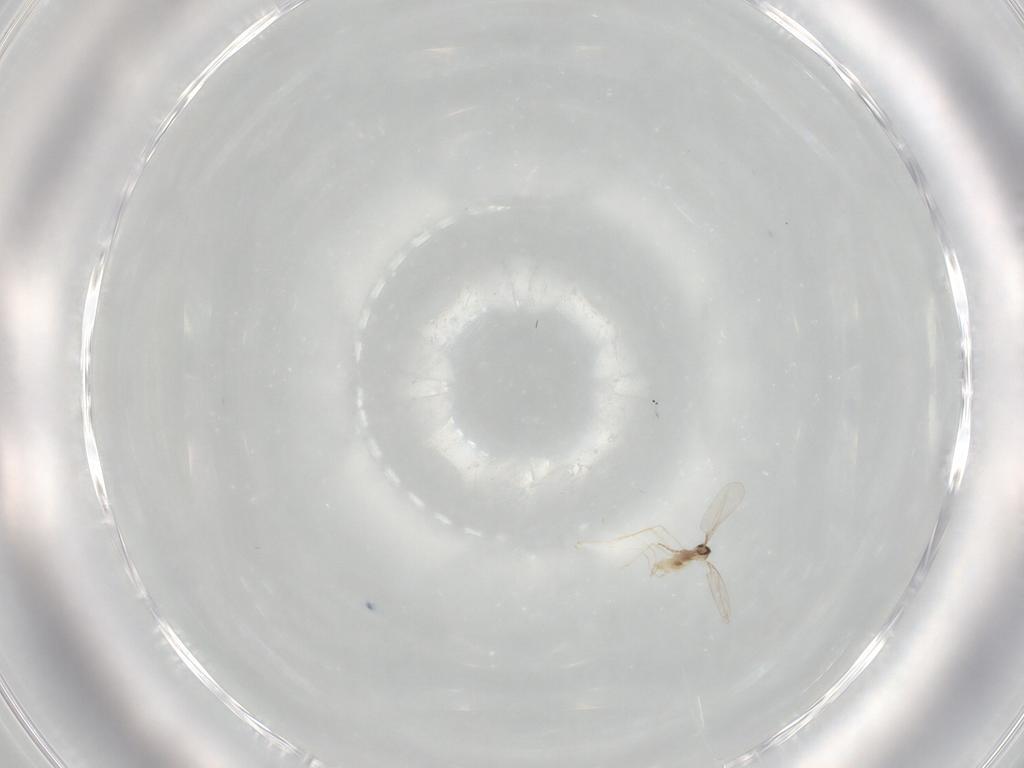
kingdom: Animalia
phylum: Arthropoda
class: Insecta
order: Diptera
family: Cecidomyiidae
